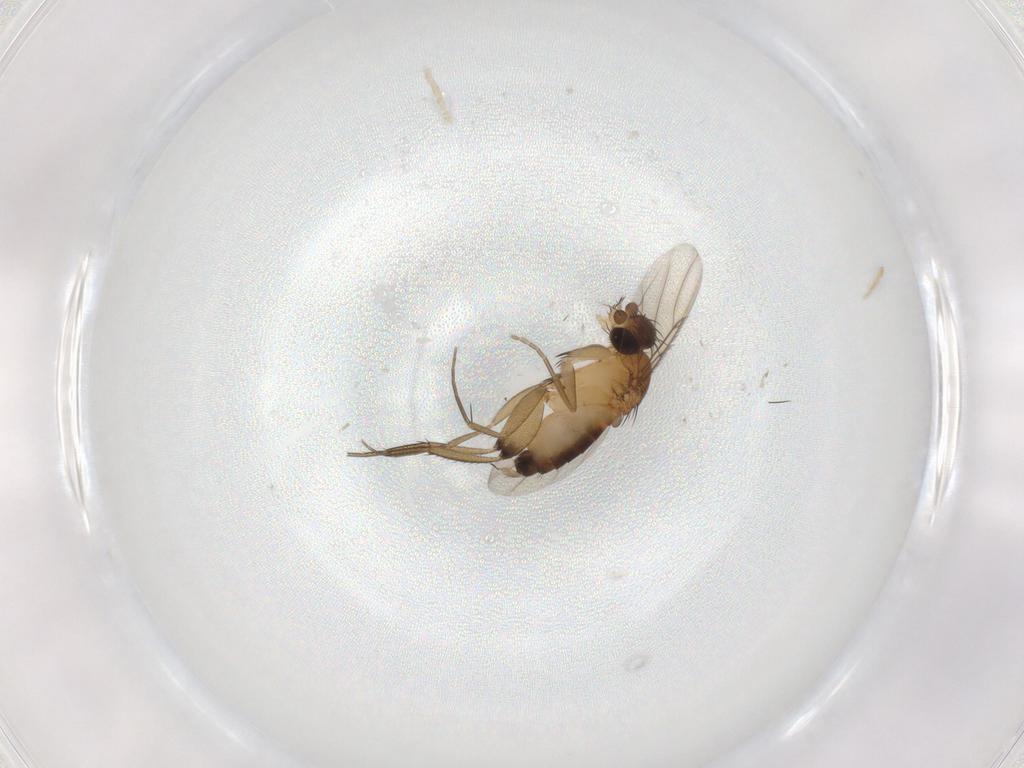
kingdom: Animalia
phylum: Arthropoda
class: Insecta
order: Diptera
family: Phoridae
